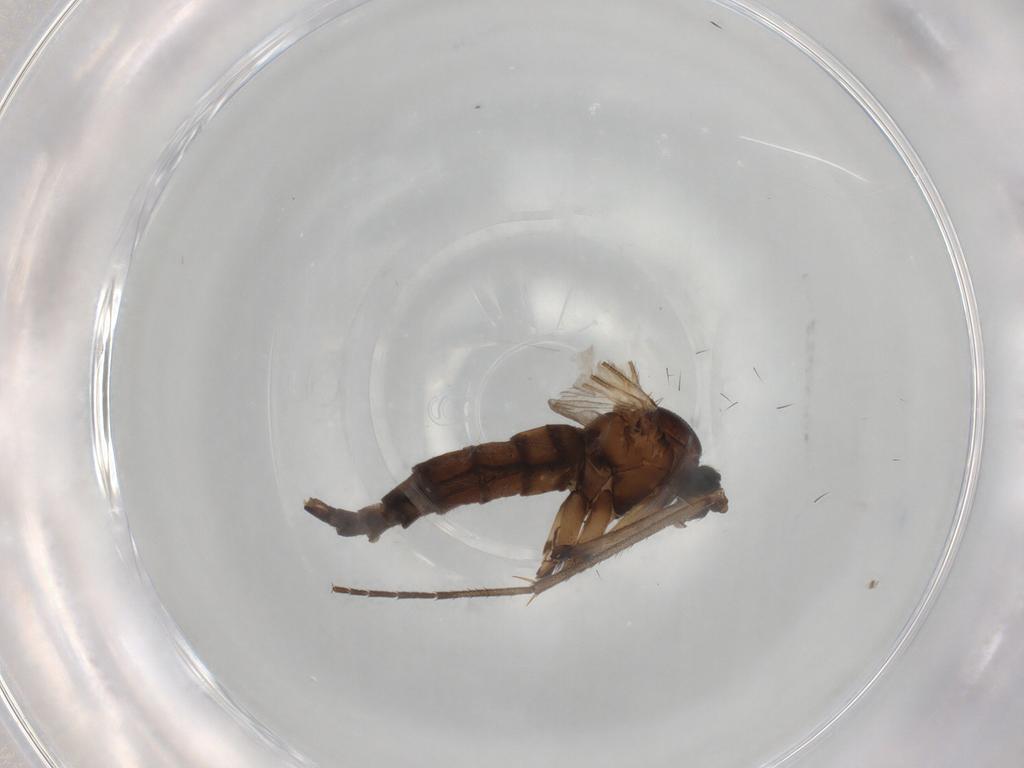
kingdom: Animalia
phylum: Arthropoda
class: Insecta
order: Diptera
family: Sciaridae
